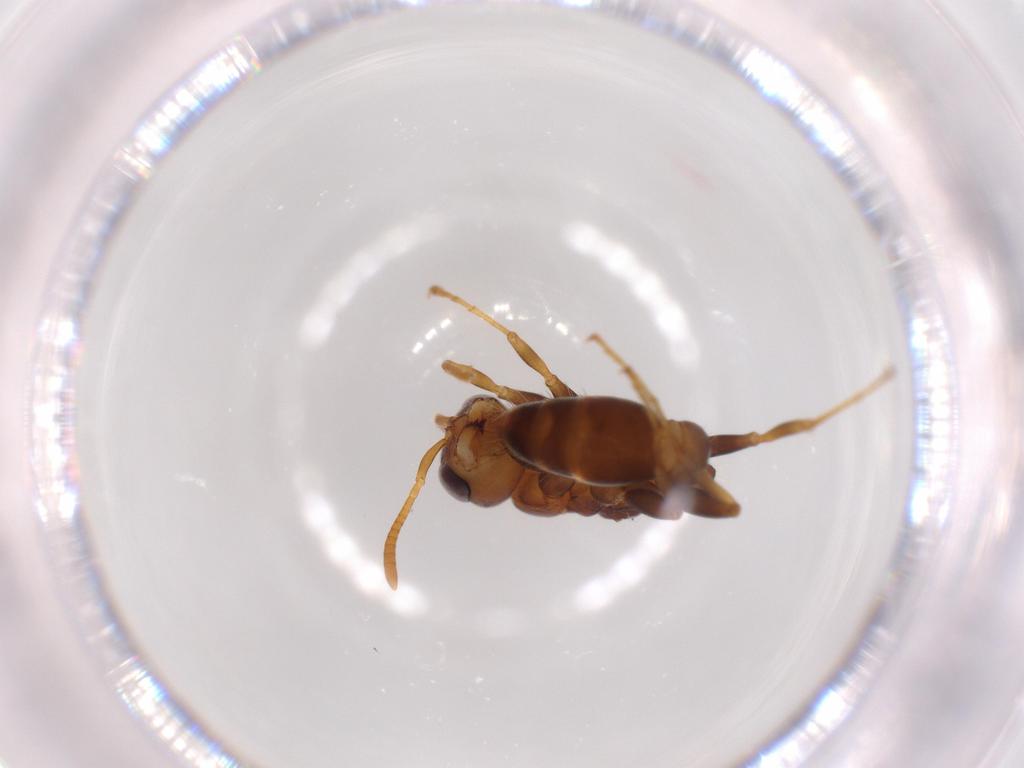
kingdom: Animalia
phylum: Arthropoda
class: Insecta
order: Hymenoptera
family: Formicidae
